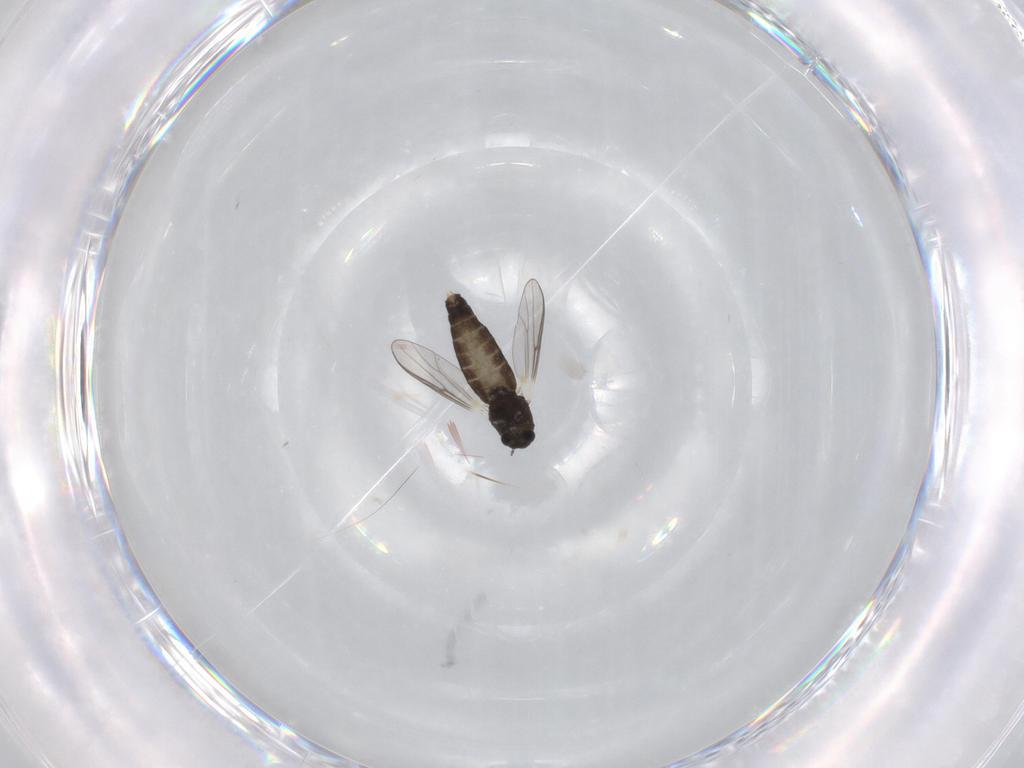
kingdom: Animalia
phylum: Arthropoda
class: Insecta
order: Diptera
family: Chironomidae
